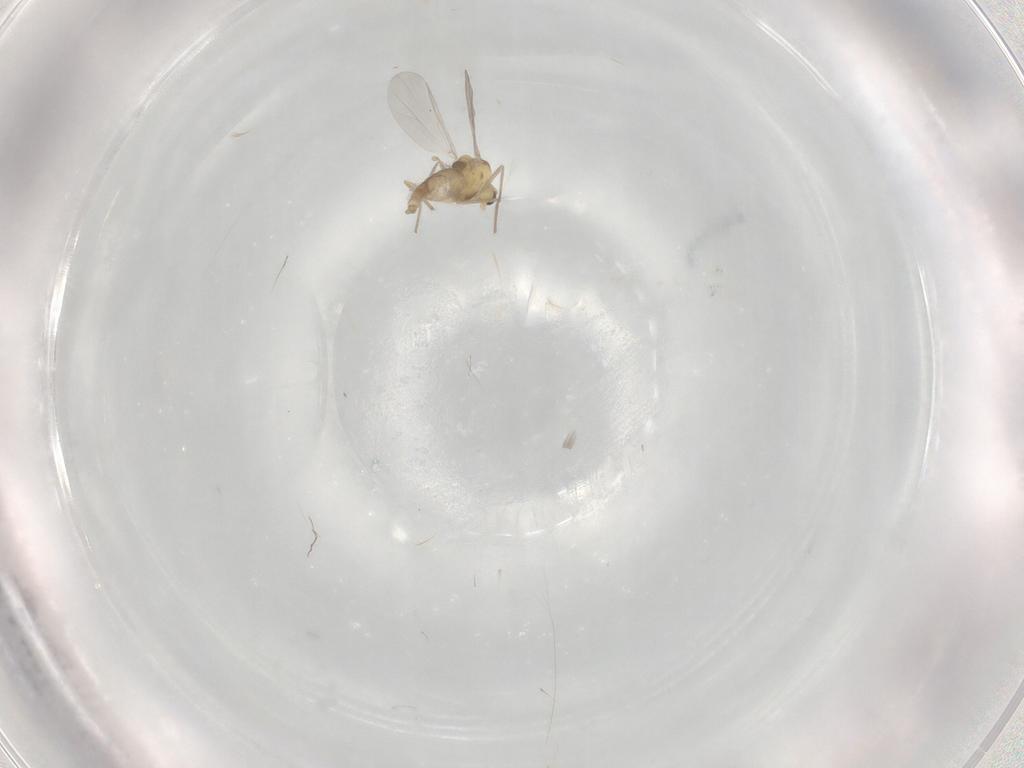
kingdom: Animalia
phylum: Arthropoda
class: Insecta
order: Diptera
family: Chironomidae
